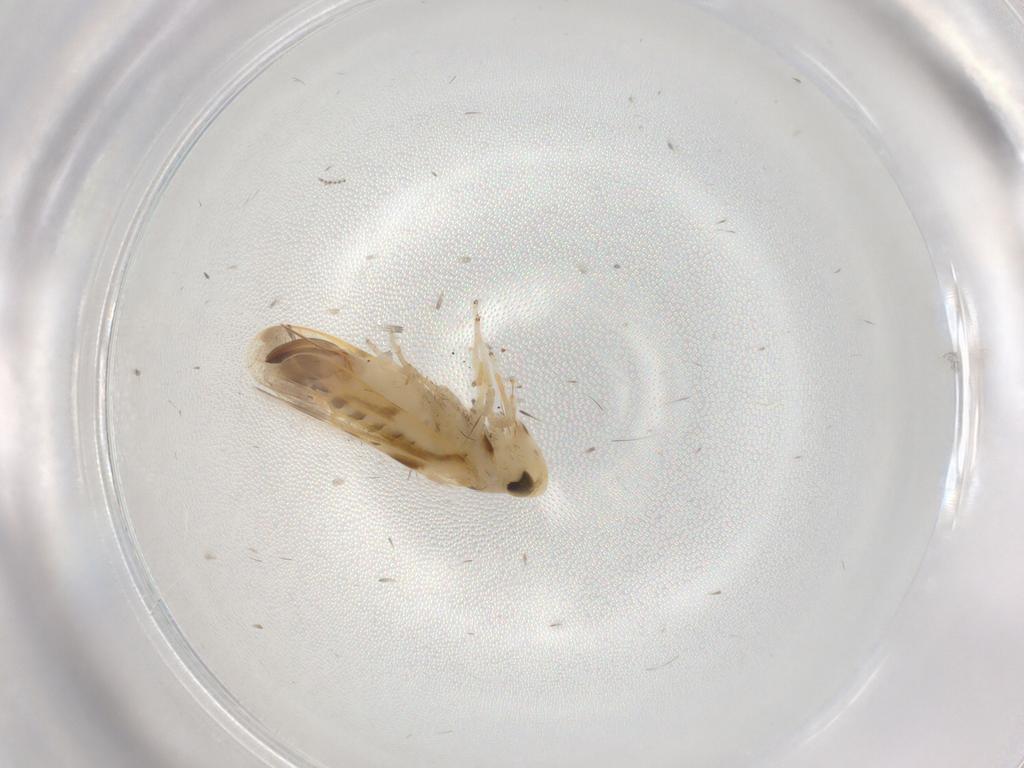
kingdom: Animalia
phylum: Arthropoda
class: Insecta
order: Hemiptera
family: Cicadellidae
